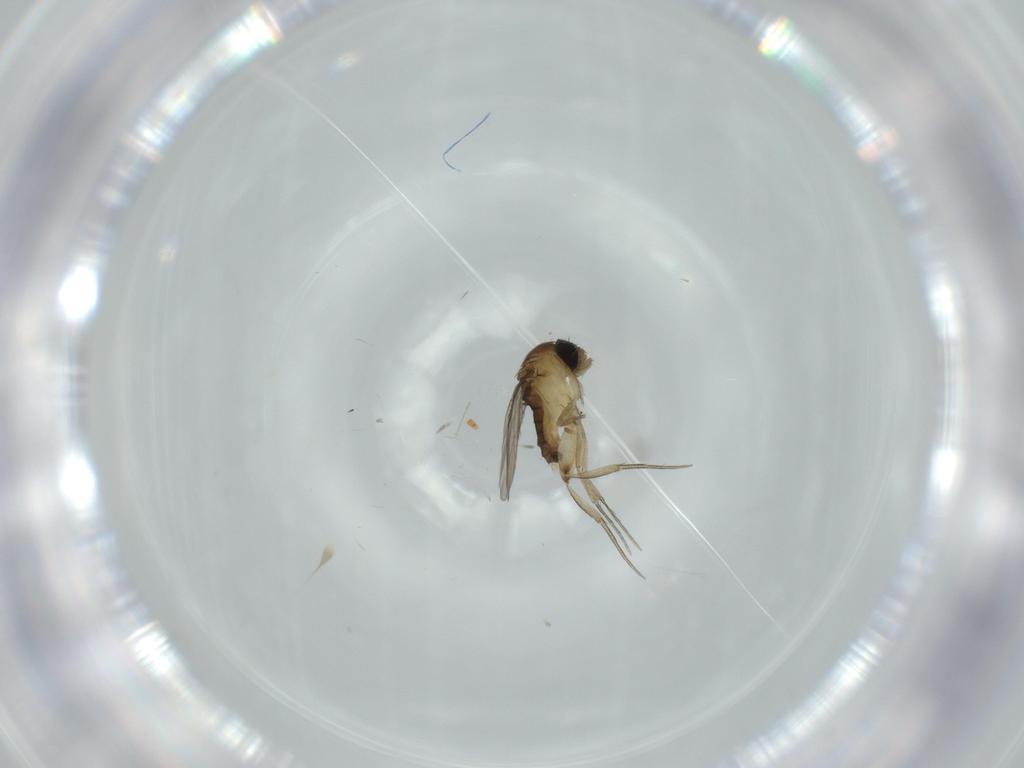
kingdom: Animalia
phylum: Arthropoda
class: Insecta
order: Diptera
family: Phoridae
